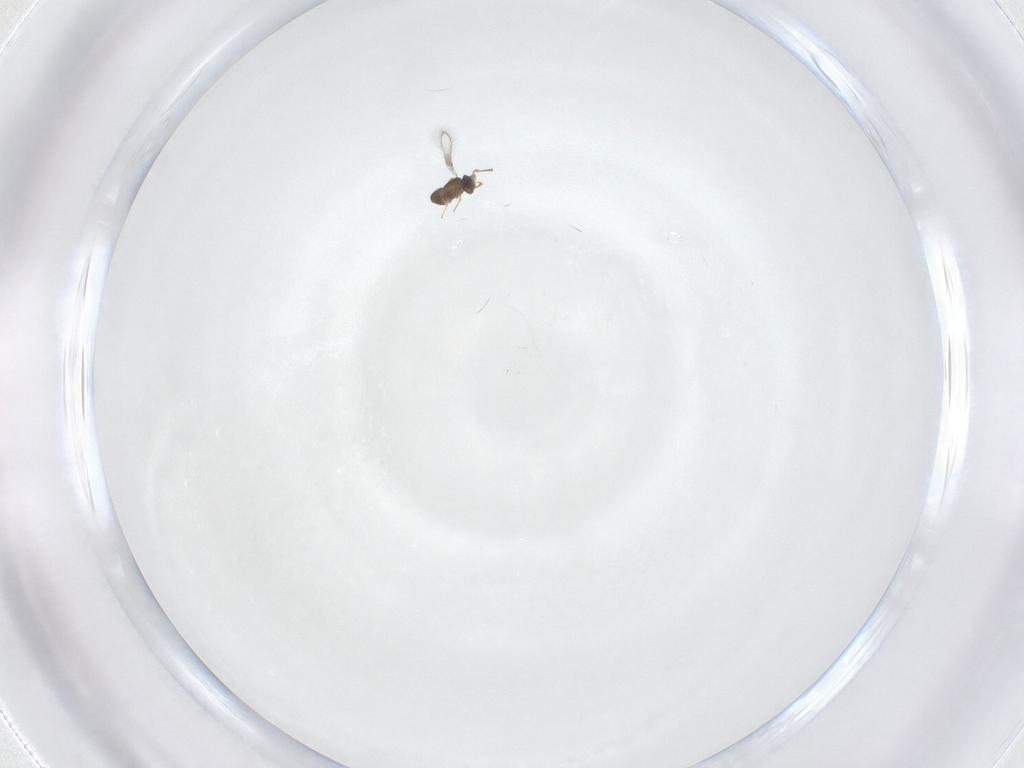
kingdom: Animalia
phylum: Arthropoda
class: Insecta
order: Hymenoptera
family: Mymaridae
